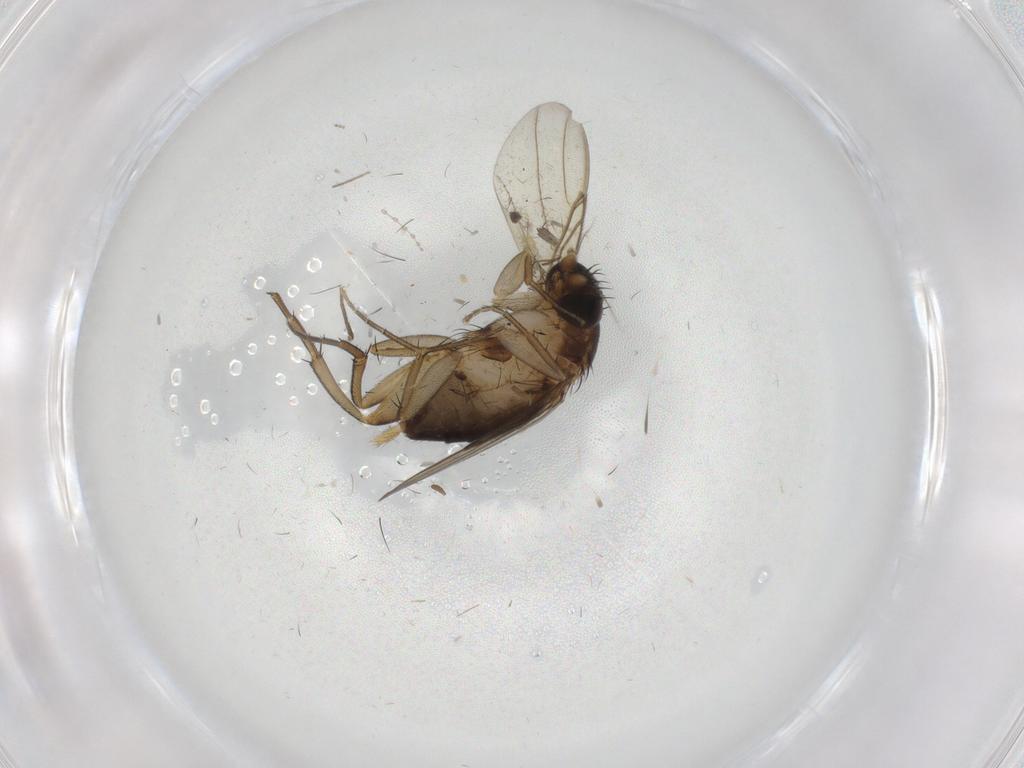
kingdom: Animalia
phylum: Arthropoda
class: Insecta
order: Diptera
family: Phoridae
